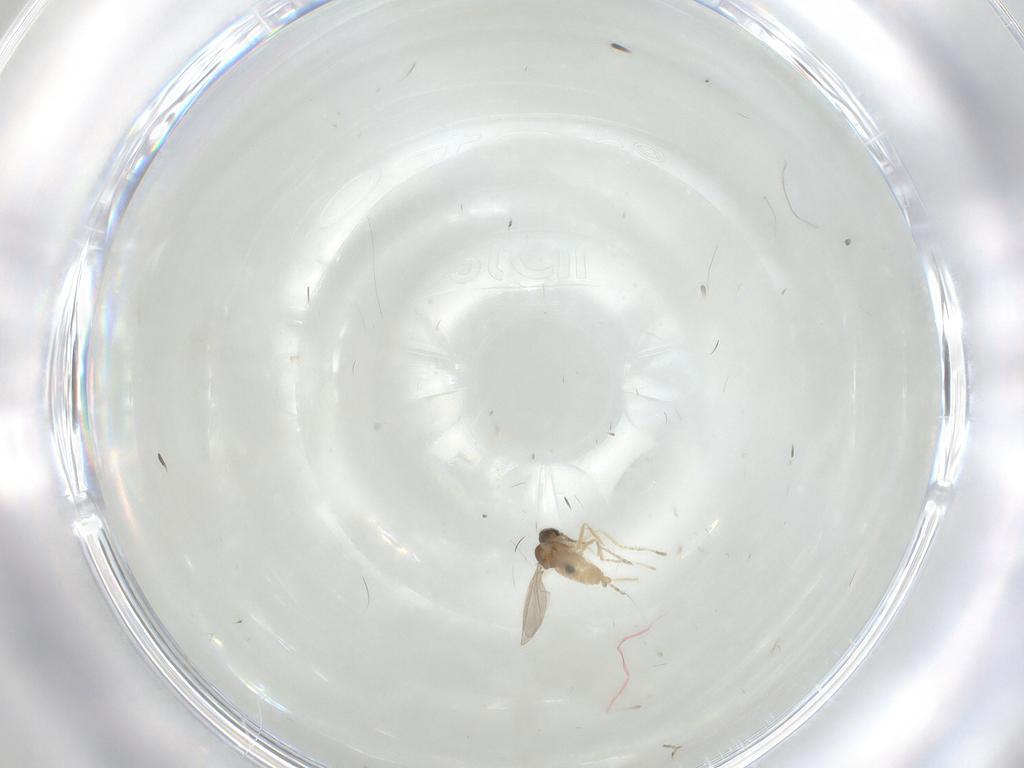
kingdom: Animalia
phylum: Arthropoda
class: Insecta
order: Diptera
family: Cecidomyiidae
